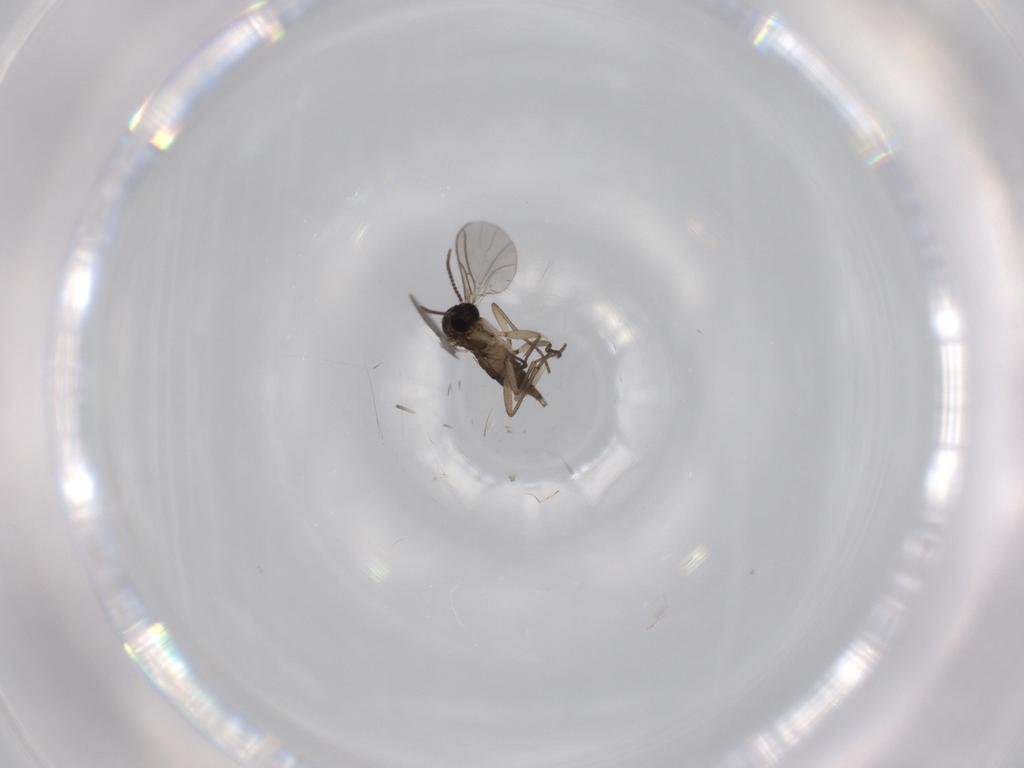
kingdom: Animalia
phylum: Arthropoda
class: Insecta
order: Diptera
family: Sciaridae
